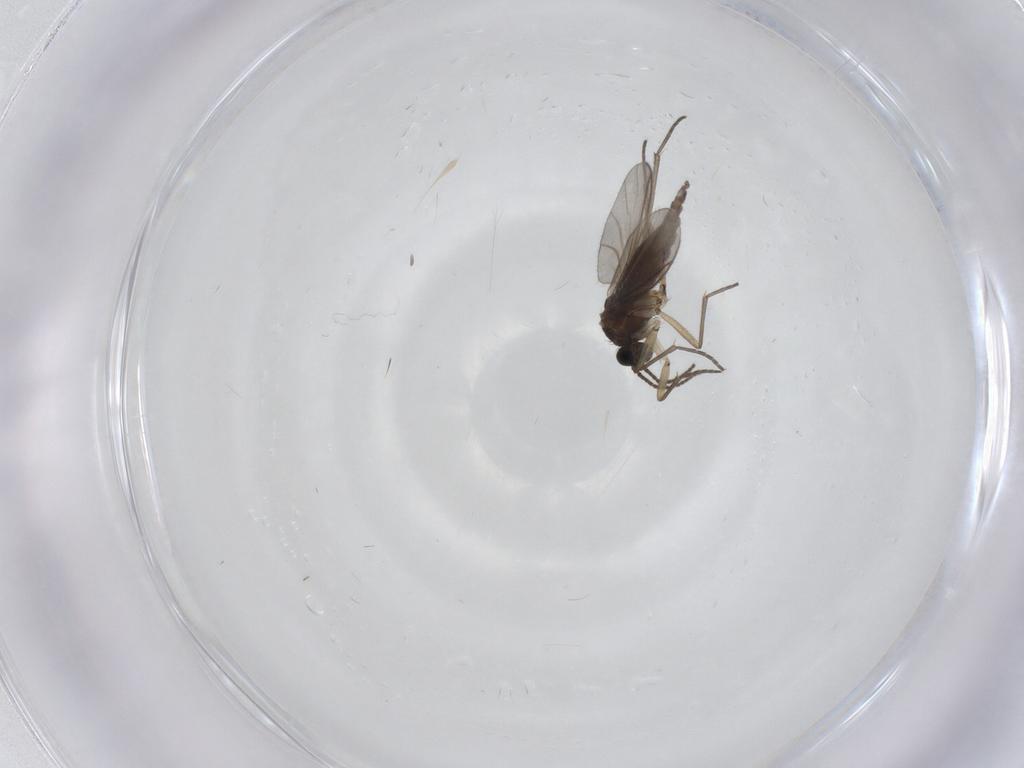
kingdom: Animalia
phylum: Arthropoda
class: Insecta
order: Diptera
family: Sciaridae
